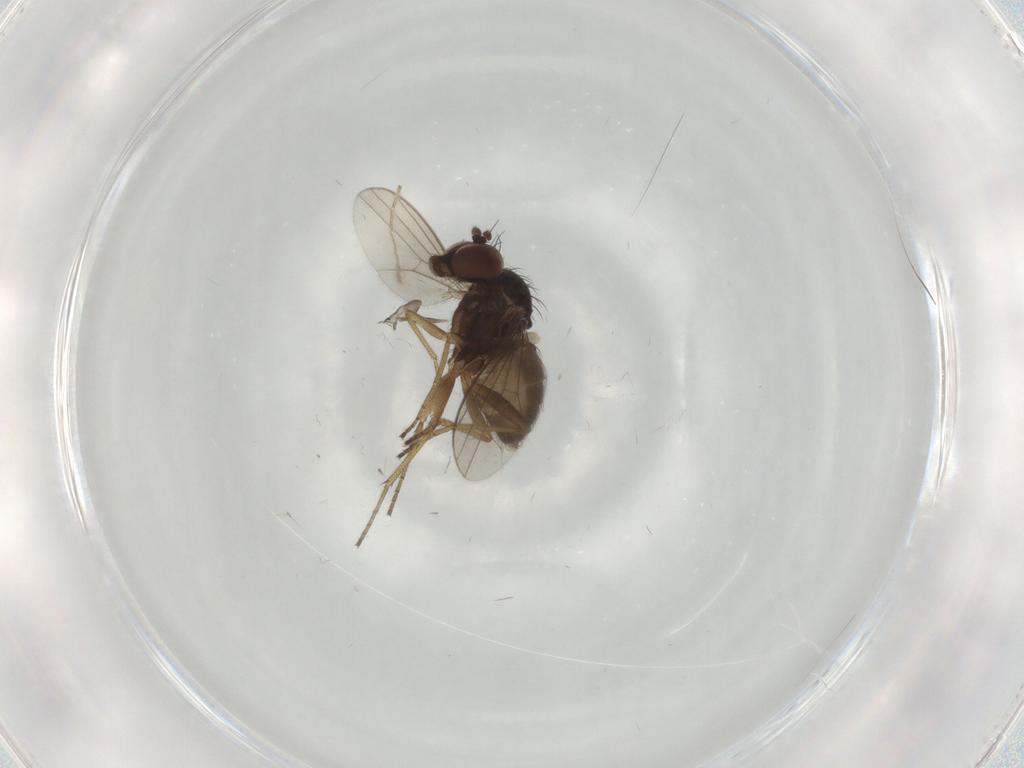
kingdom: Animalia
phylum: Arthropoda
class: Insecta
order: Diptera
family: Dolichopodidae
